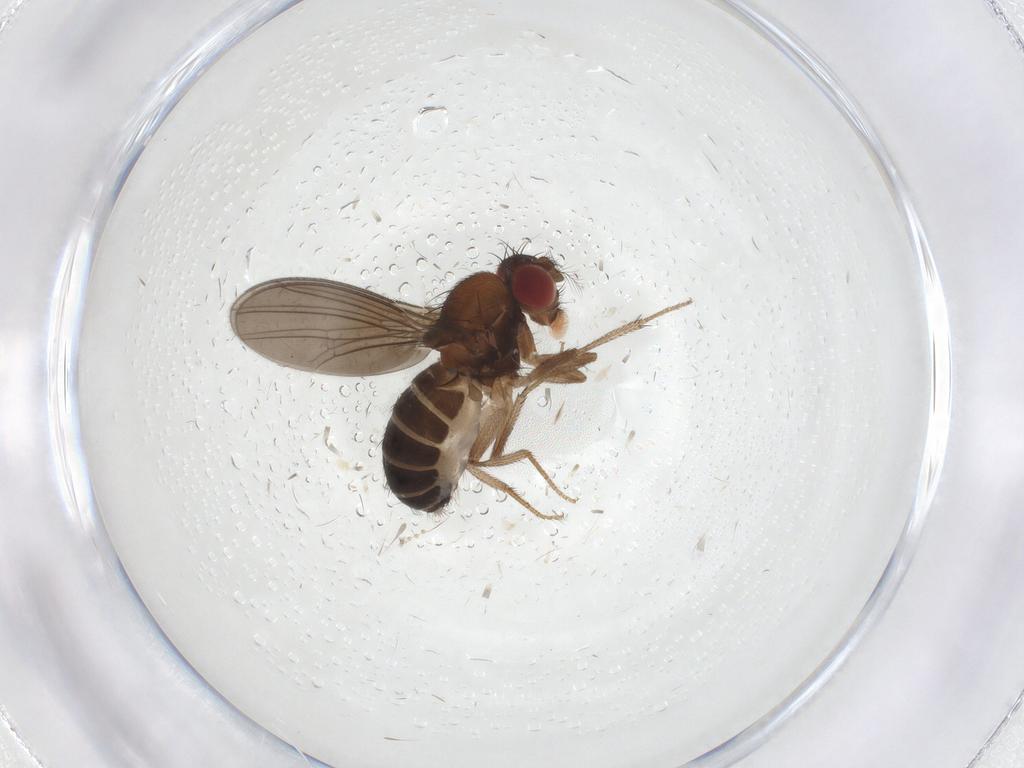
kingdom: Animalia
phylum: Arthropoda
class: Insecta
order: Diptera
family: Drosophilidae
